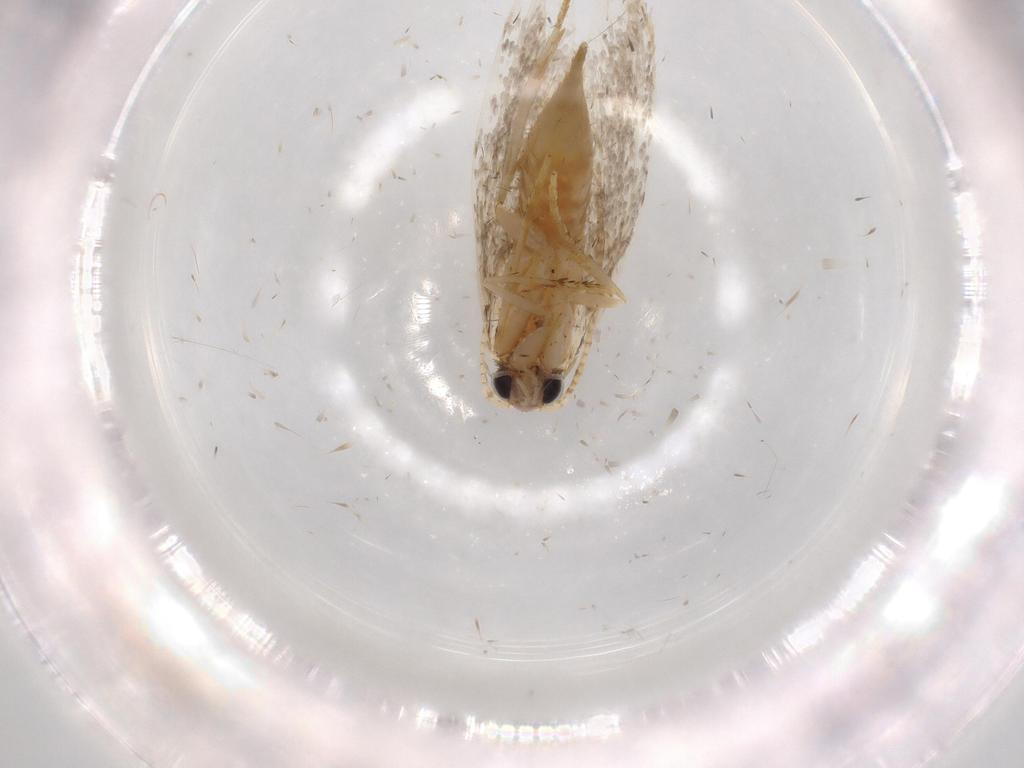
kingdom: Animalia
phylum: Arthropoda
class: Insecta
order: Lepidoptera
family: Tineidae
